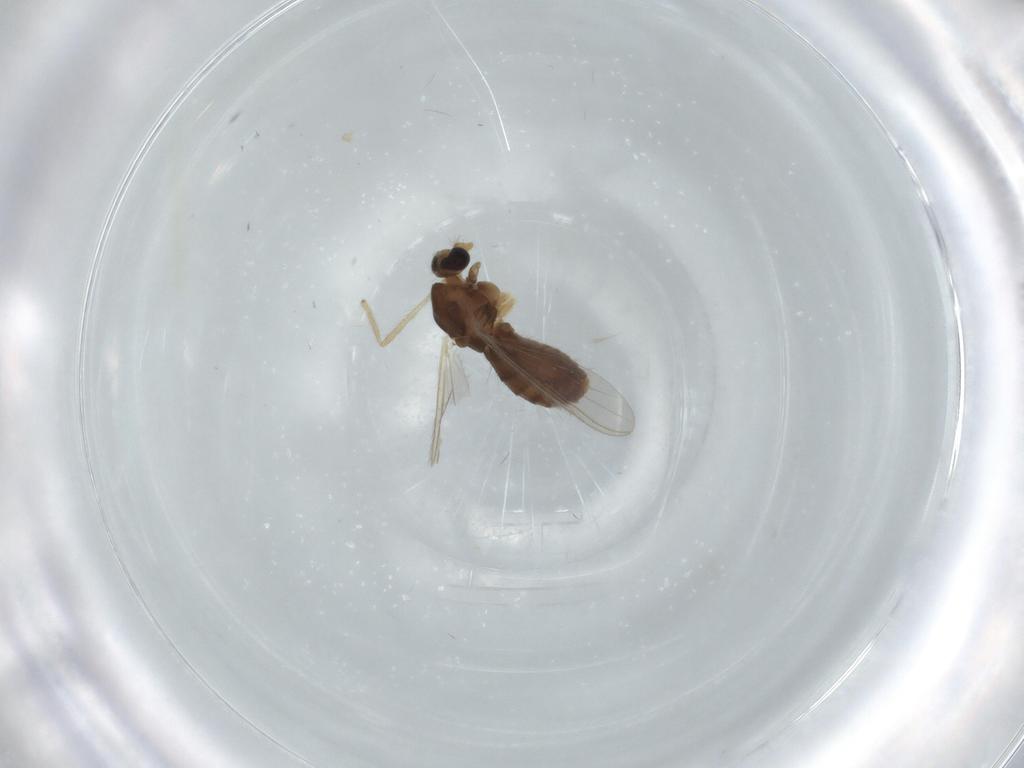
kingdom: Animalia
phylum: Arthropoda
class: Insecta
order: Diptera
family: Chironomidae
